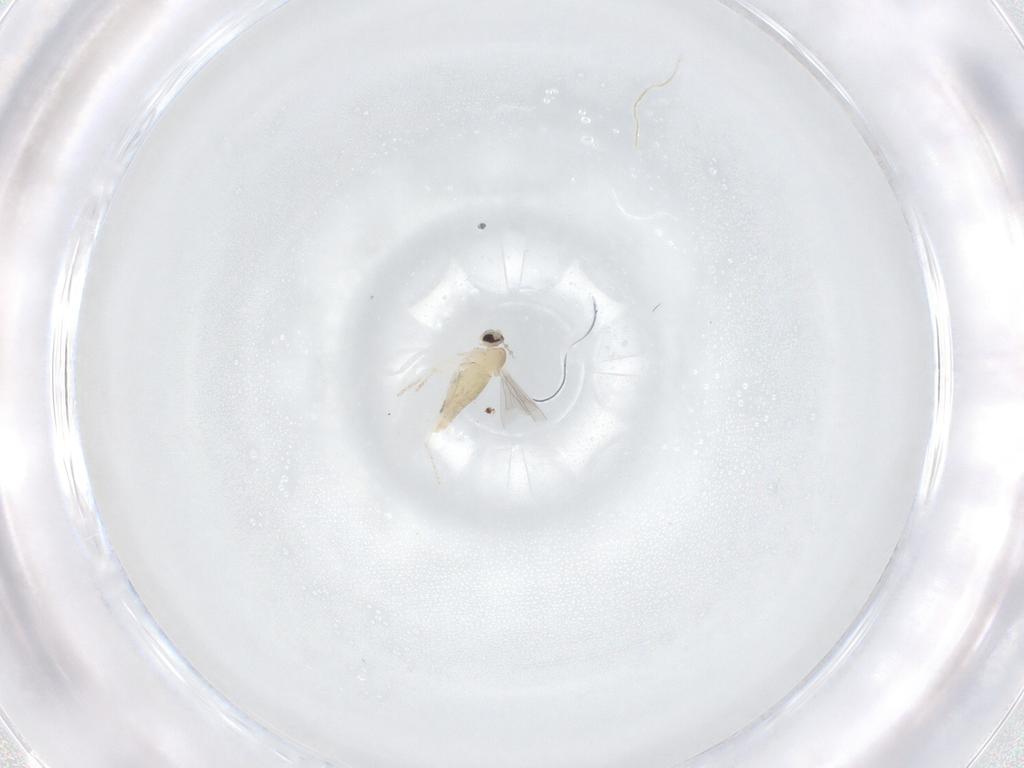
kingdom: Animalia
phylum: Arthropoda
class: Insecta
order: Diptera
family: Cecidomyiidae
